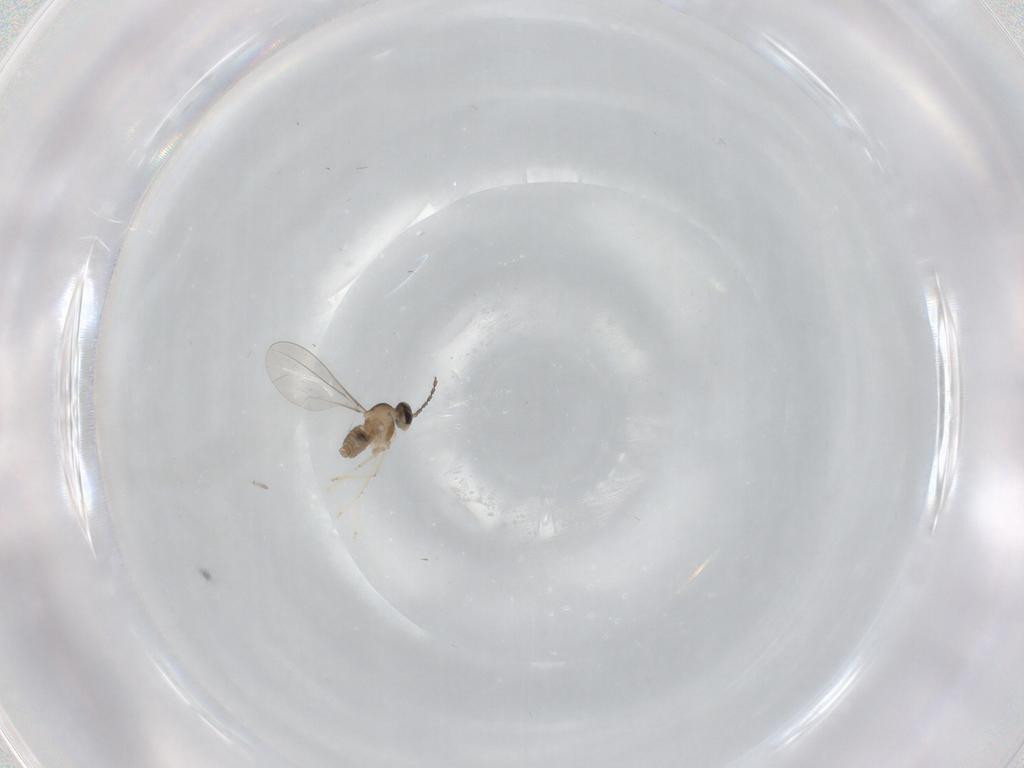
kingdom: Animalia
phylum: Arthropoda
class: Insecta
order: Diptera
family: Cecidomyiidae
